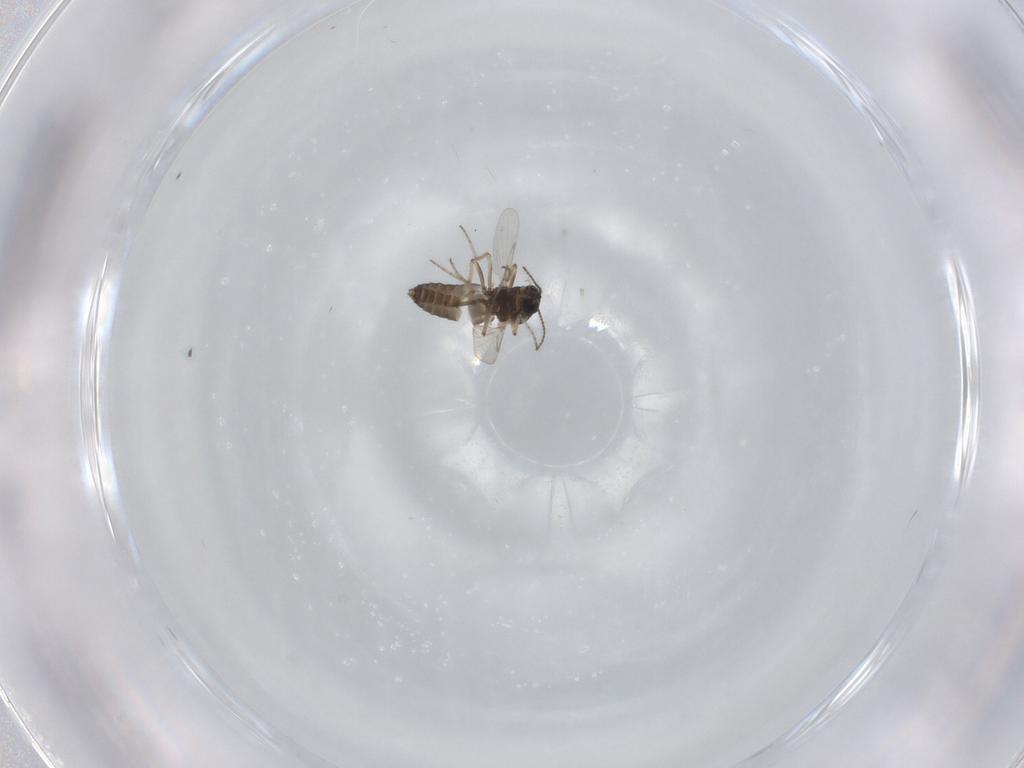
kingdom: Animalia
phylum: Arthropoda
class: Insecta
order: Diptera
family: Ceratopogonidae
